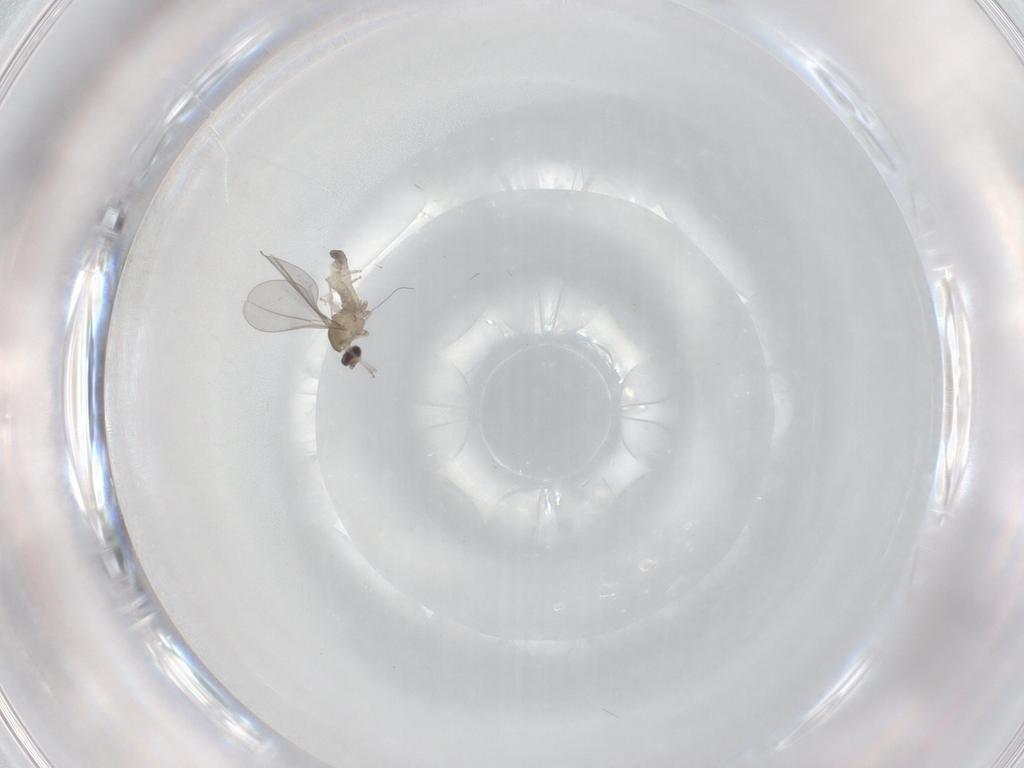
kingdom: Animalia
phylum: Arthropoda
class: Insecta
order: Diptera
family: Cecidomyiidae
